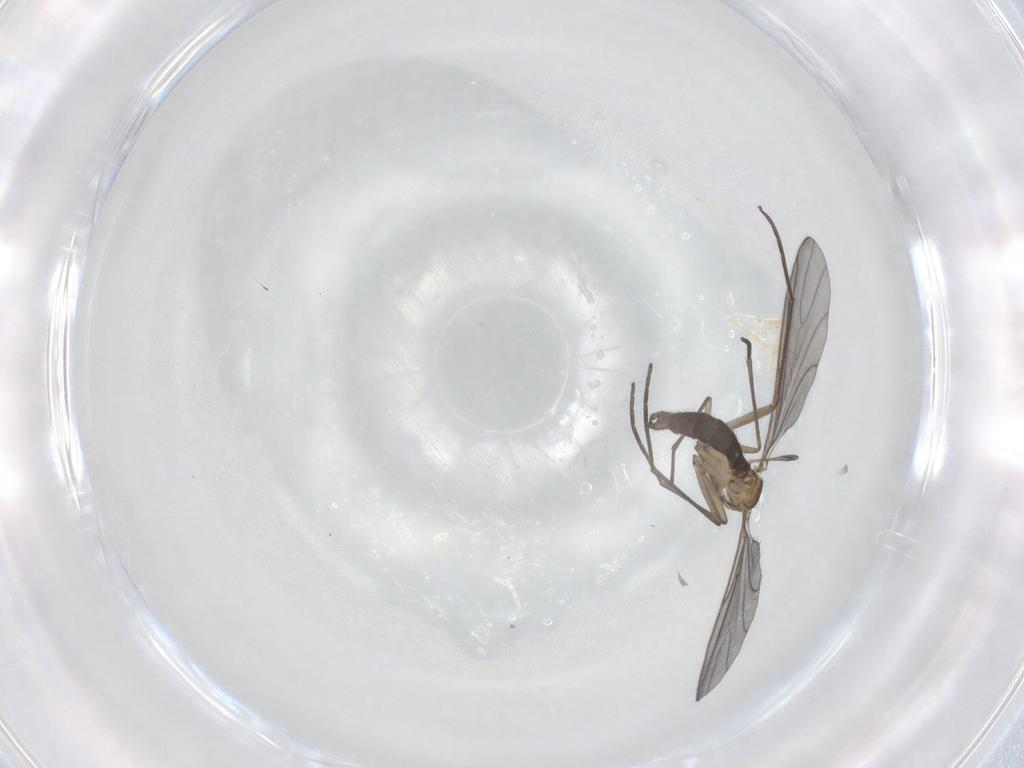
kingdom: Animalia
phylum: Arthropoda
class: Insecta
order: Diptera
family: Sciaridae
